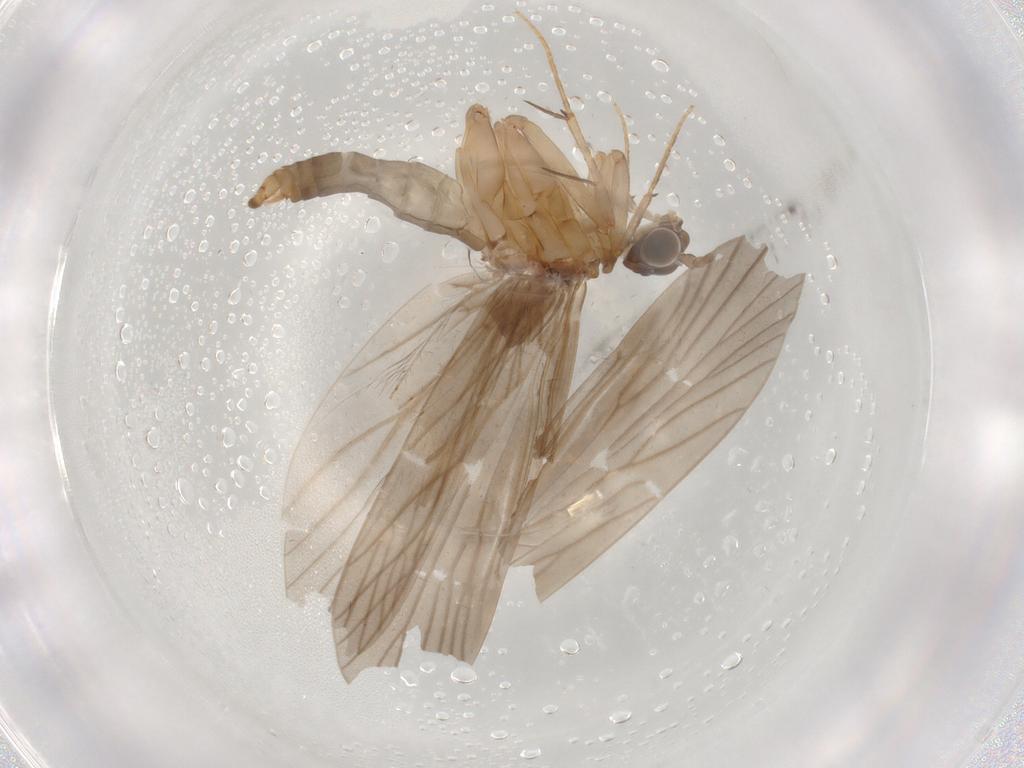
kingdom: Animalia
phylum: Arthropoda
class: Insecta
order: Trichoptera
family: Philopotamidae
